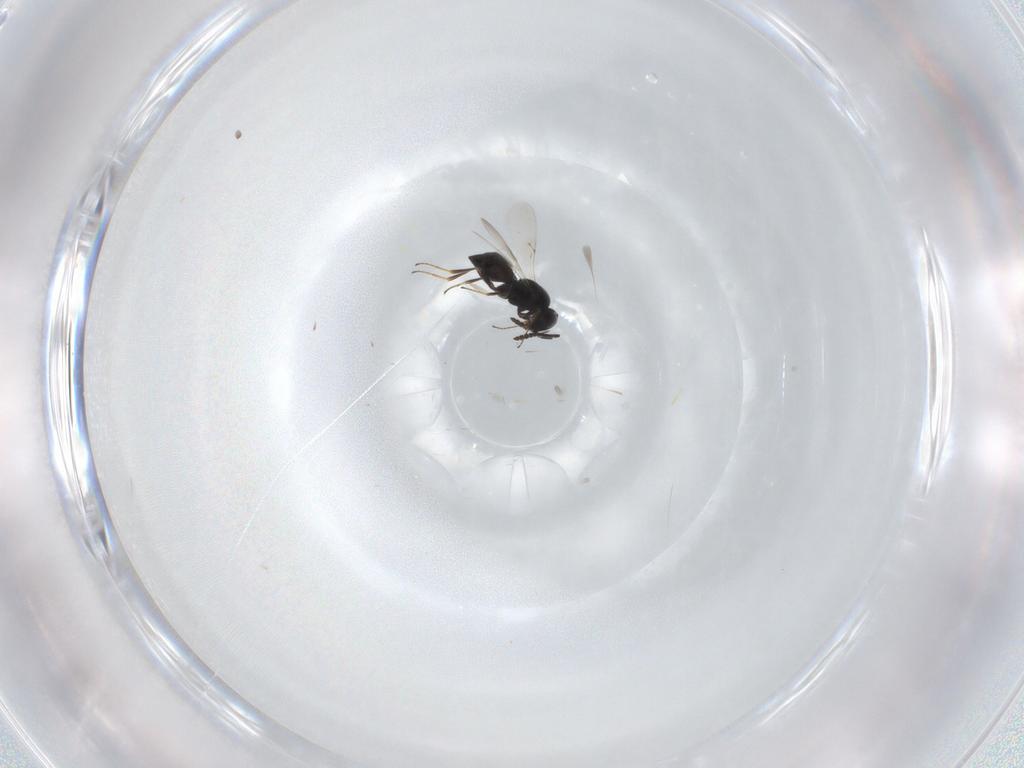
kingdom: Animalia
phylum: Arthropoda
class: Insecta
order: Hymenoptera
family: Scelionidae
